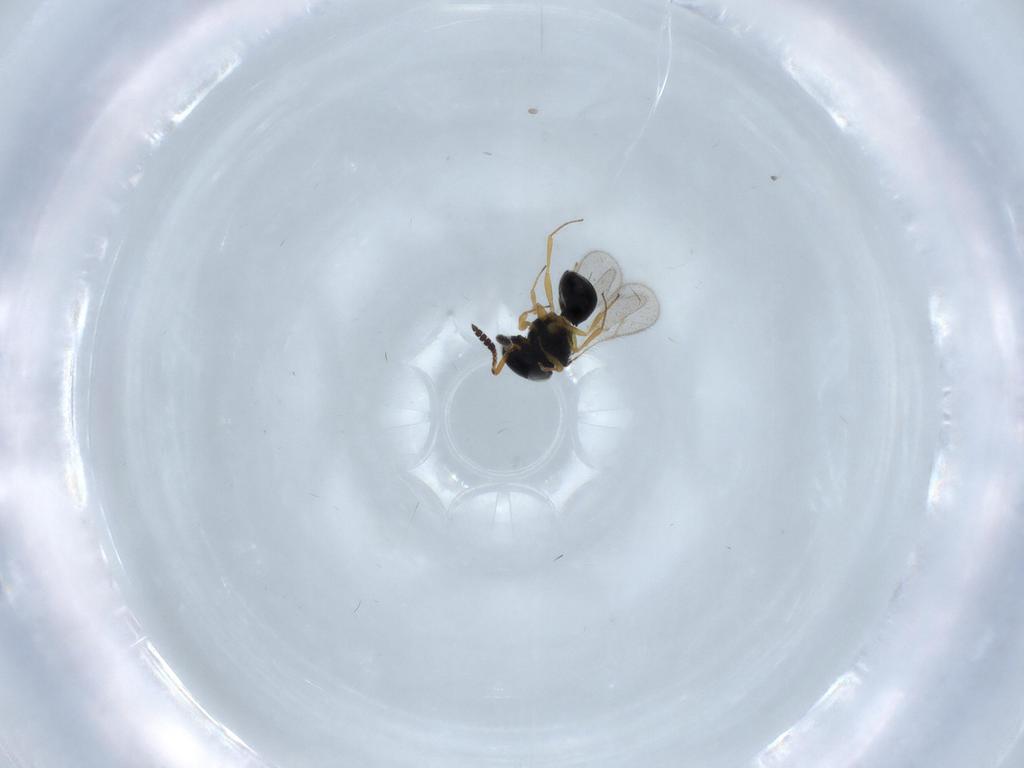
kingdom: Animalia
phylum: Arthropoda
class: Insecta
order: Hymenoptera
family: Scelionidae
